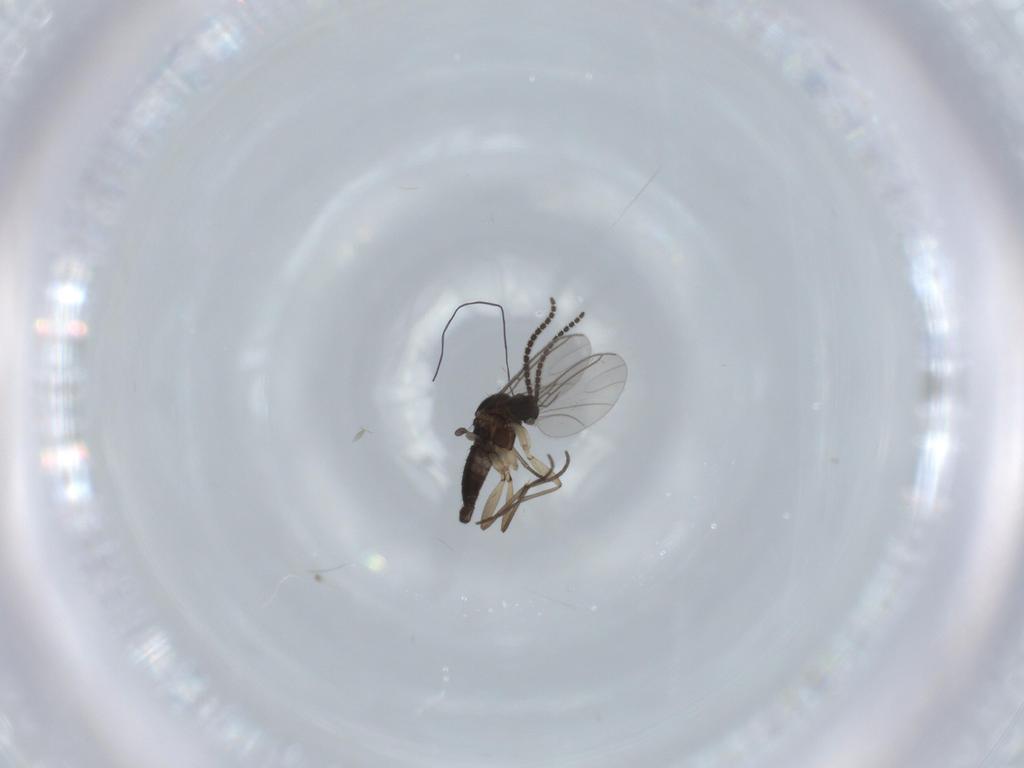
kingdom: Animalia
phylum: Arthropoda
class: Insecta
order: Diptera
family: Sciaridae
